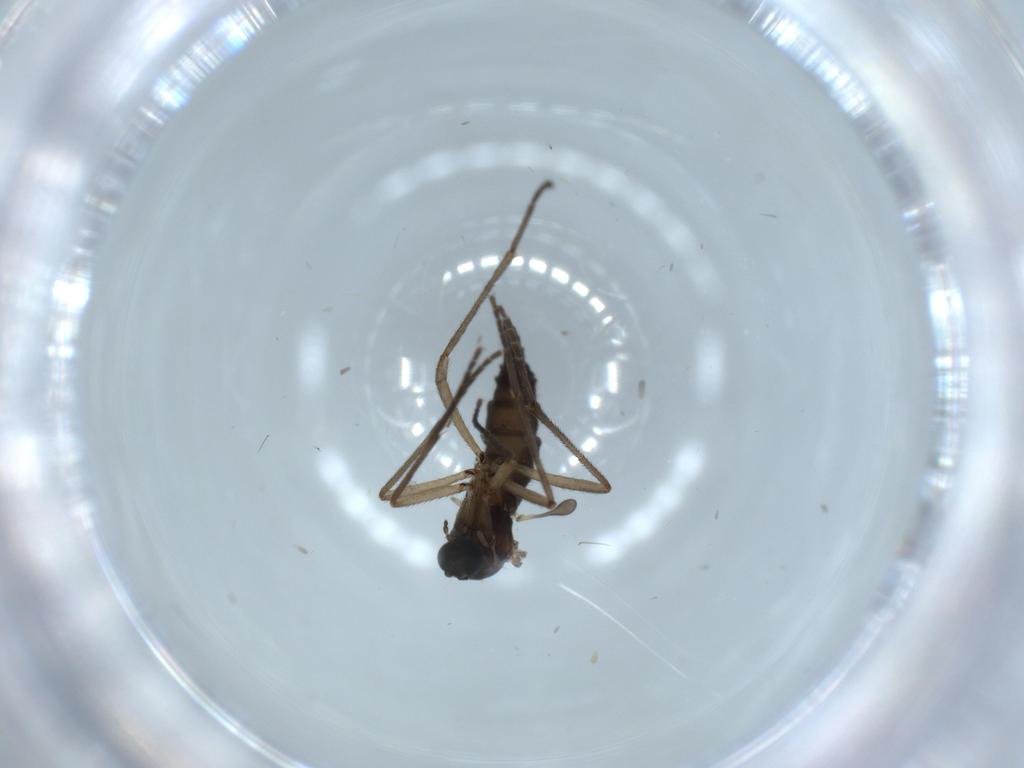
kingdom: Animalia
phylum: Arthropoda
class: Insecta
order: Diptera
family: Sciaridae
